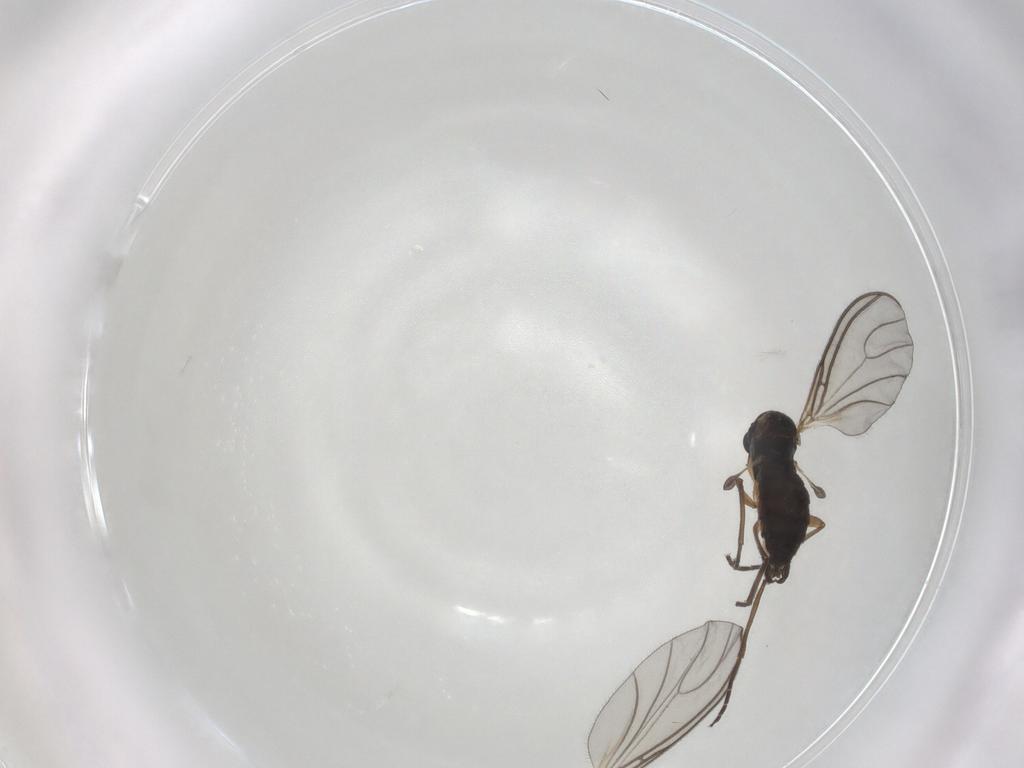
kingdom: Animalia
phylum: Arthropoda
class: Insecta
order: Diptera
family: Sciaridae
